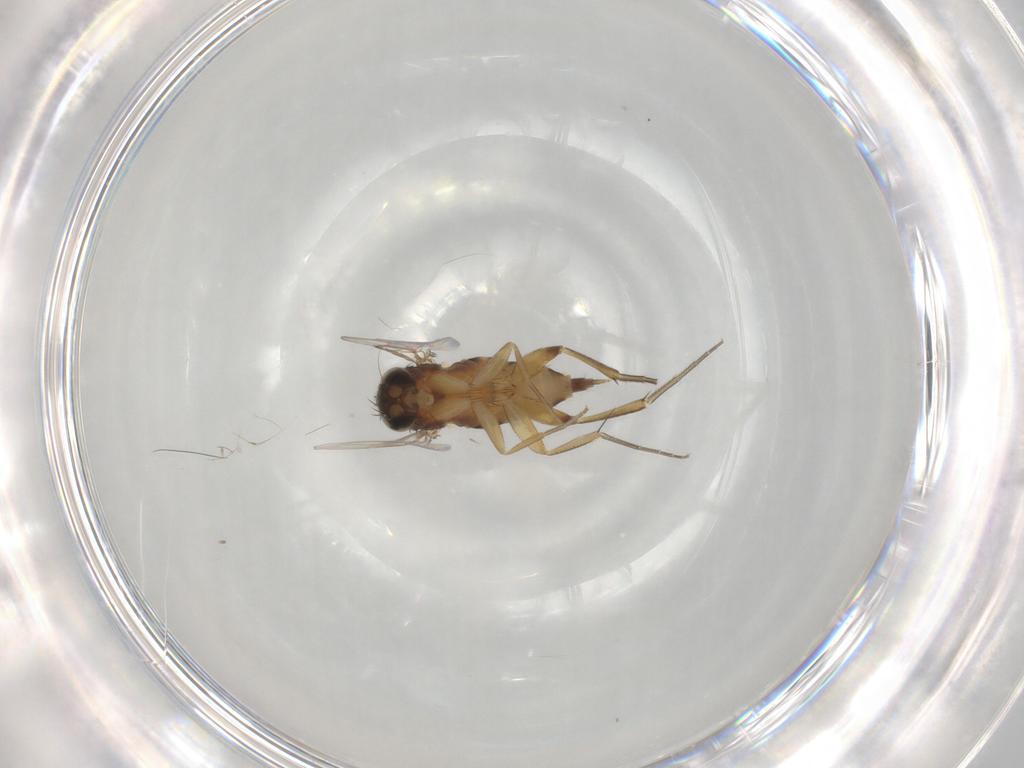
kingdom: Animalia
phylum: Arthropoda
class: Insecta
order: Diptera
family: Phoridae
